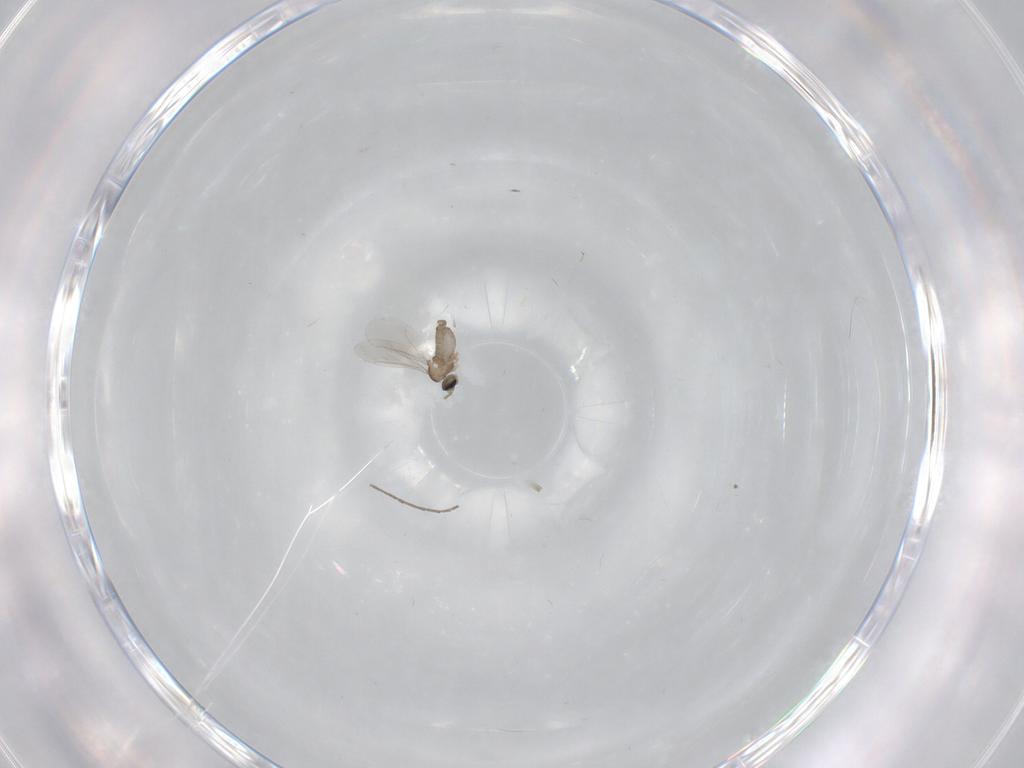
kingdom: Animalia
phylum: Arthropoda
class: Insecta
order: Diptera
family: Cecidomyiidae
